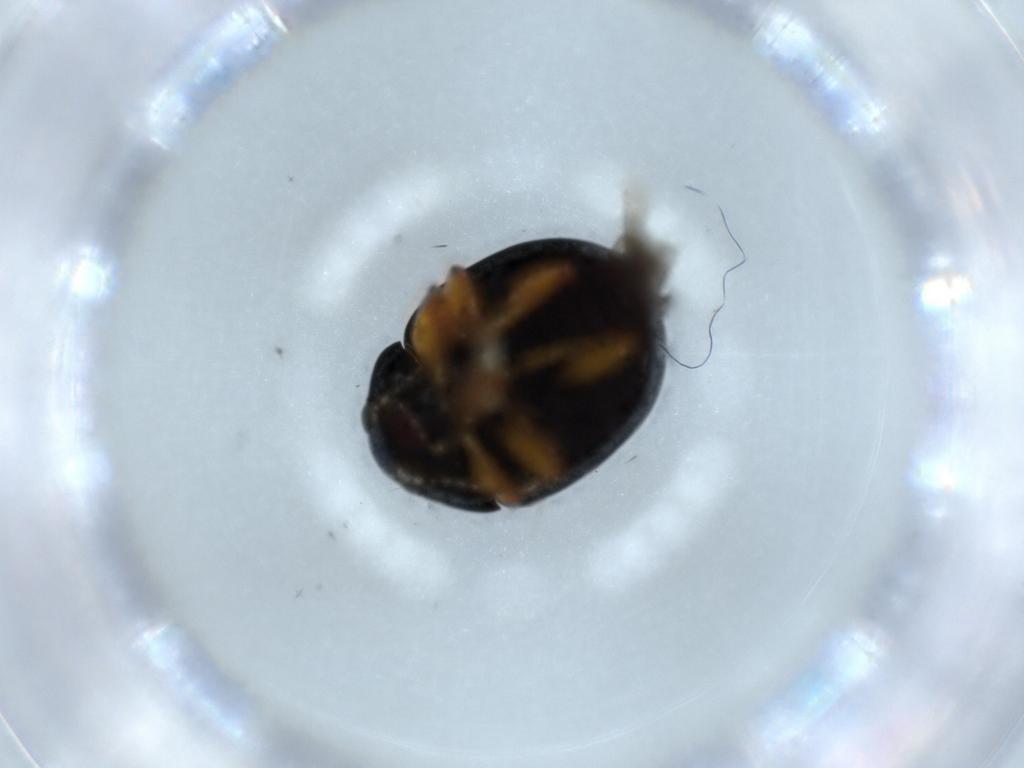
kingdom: Animalia
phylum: Arthropoda
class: Insecta
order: Coleoptera
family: Chrysomelidae
